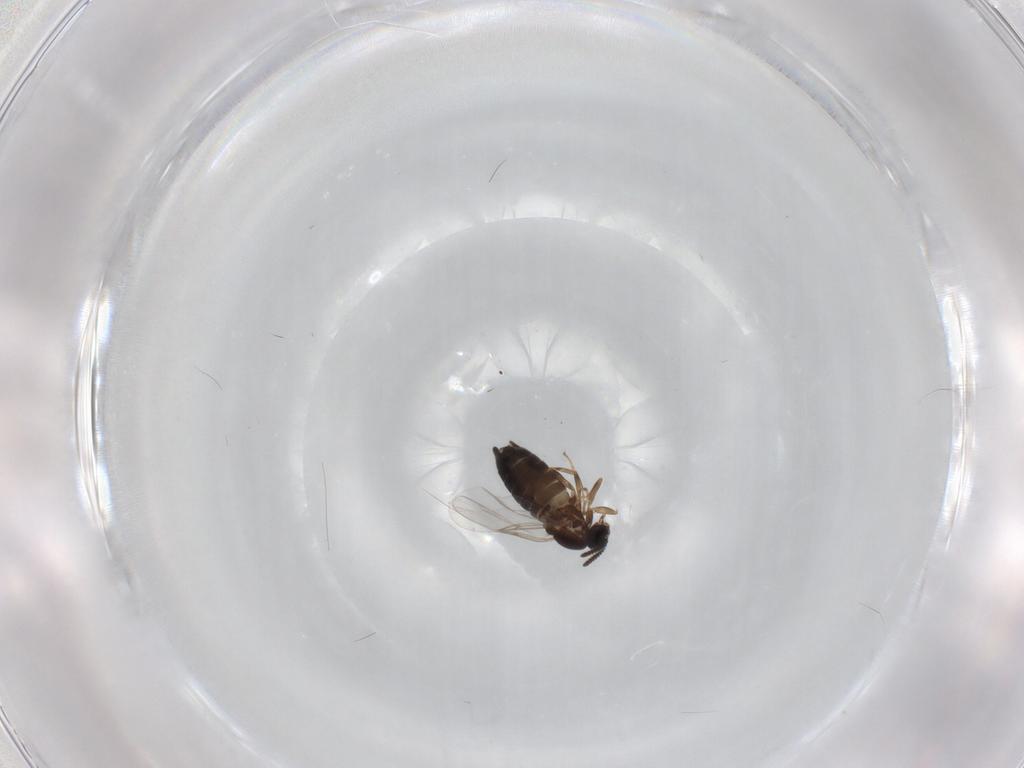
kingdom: Animalia
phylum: Arthropoda
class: Insecta
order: Diptera
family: Scatopsidae
